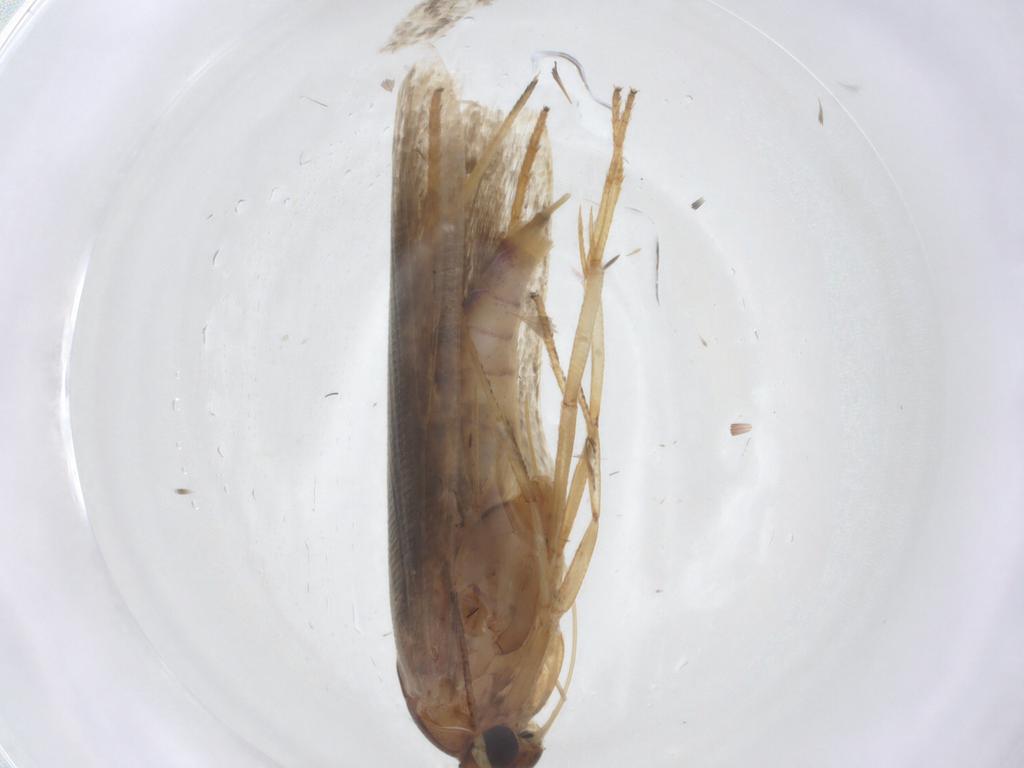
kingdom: Animalia
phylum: Arthropoda
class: Insecta
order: Lepidoptera
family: Blastobasidae
